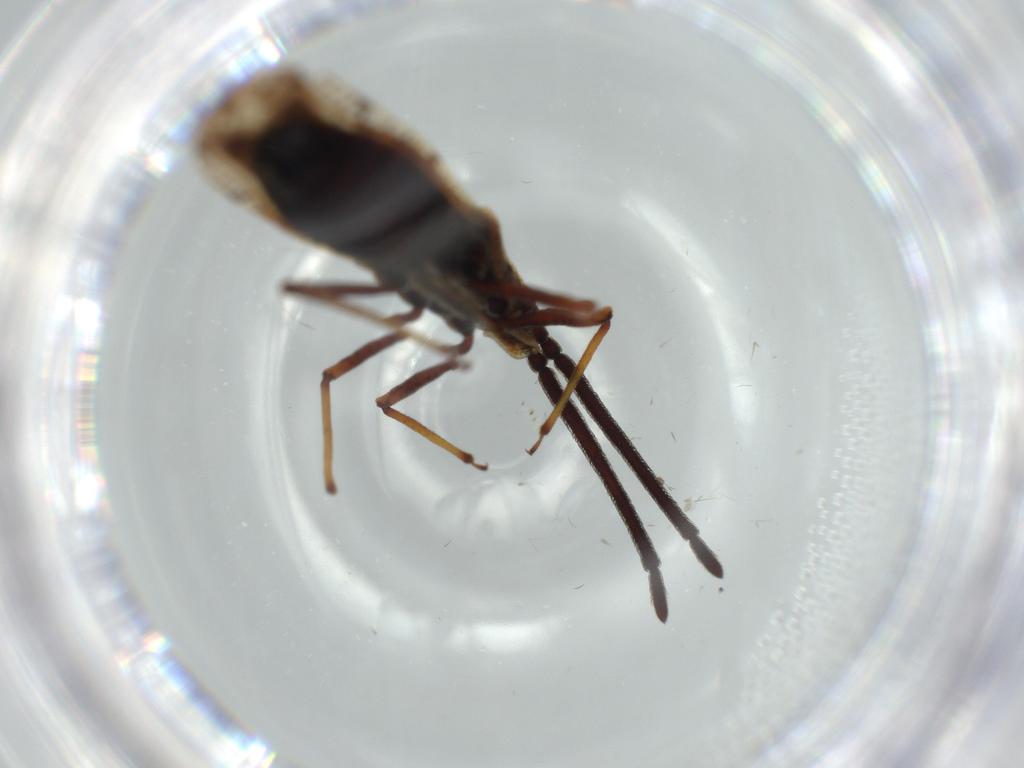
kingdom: Animalia
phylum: Arthropoda
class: Insecta
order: Hemiptera
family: Tingidae
